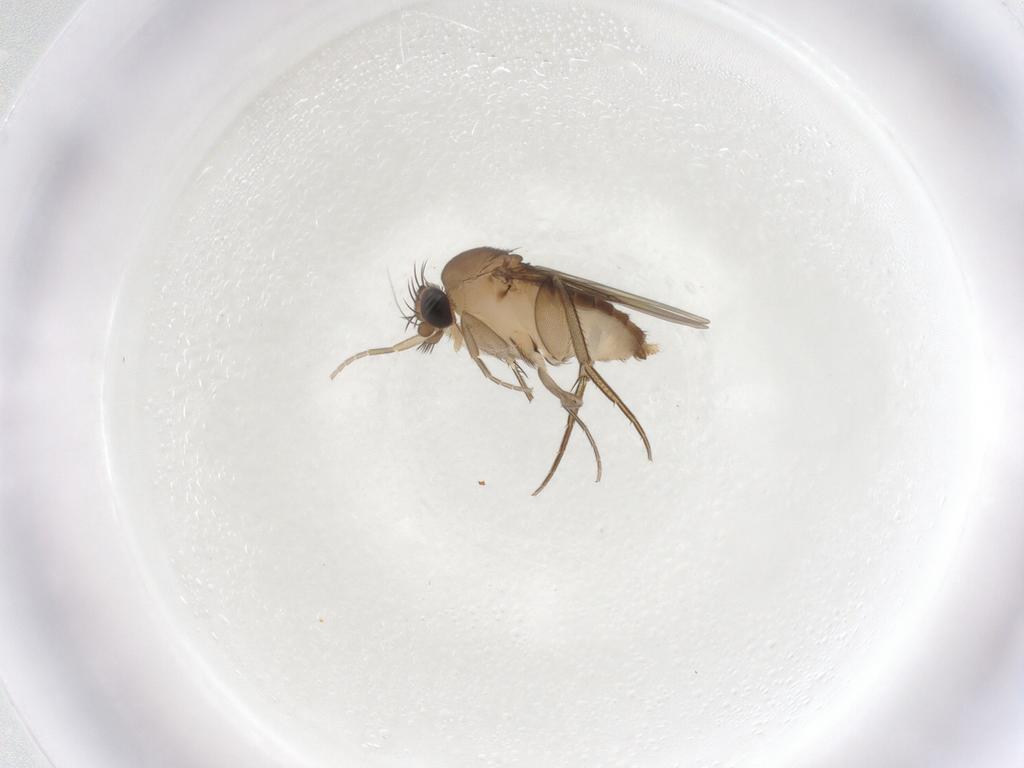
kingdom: Animalia
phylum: Arthropoda
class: Insecta
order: Diptera
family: Phoridae
